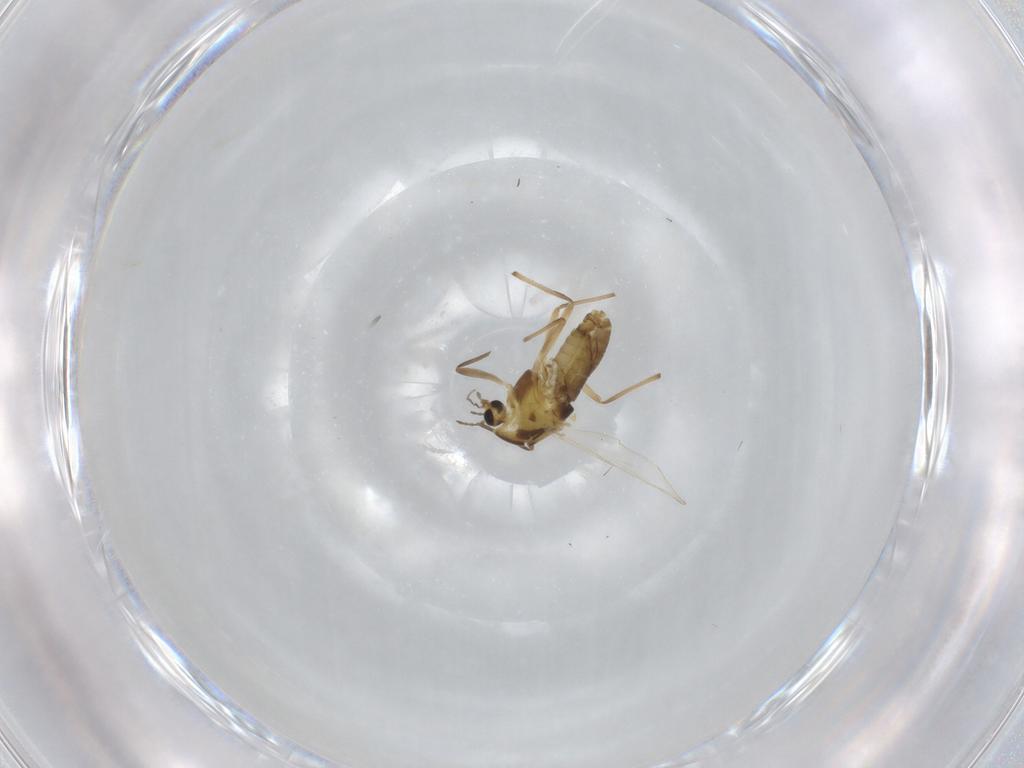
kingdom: Animalia
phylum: Arthropoda
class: Insecta
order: Diptera
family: Chironomidae
